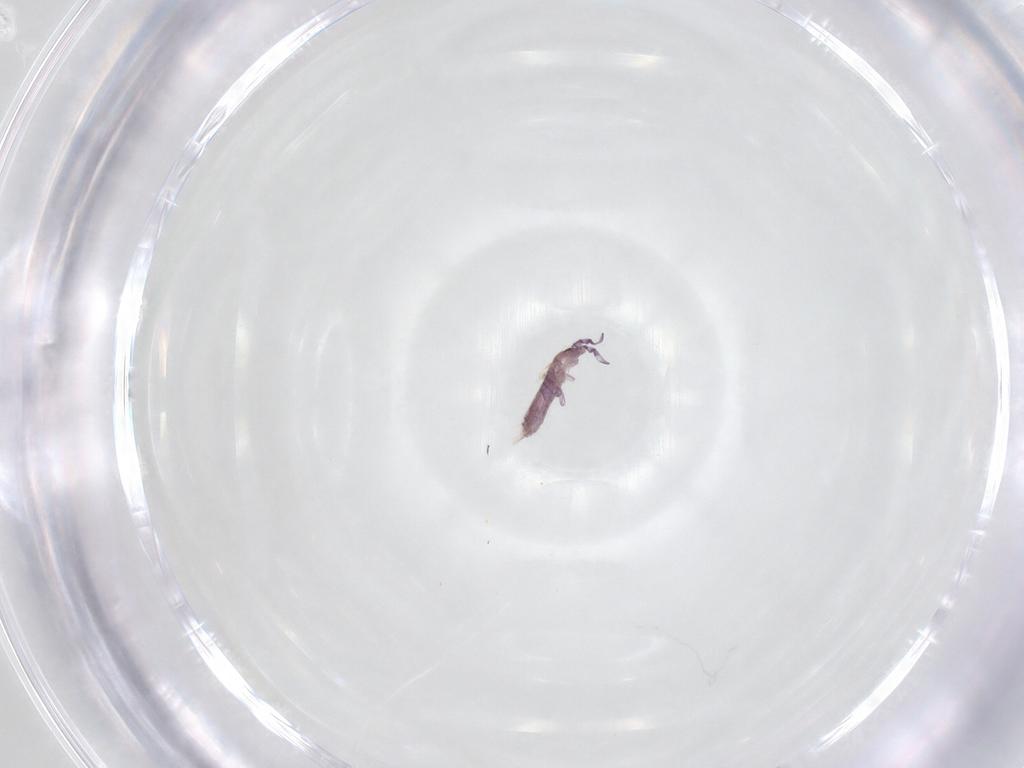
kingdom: Animalia
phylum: Arthropoda
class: Collembola
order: Entomobryomorpha
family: Entomobryidae
